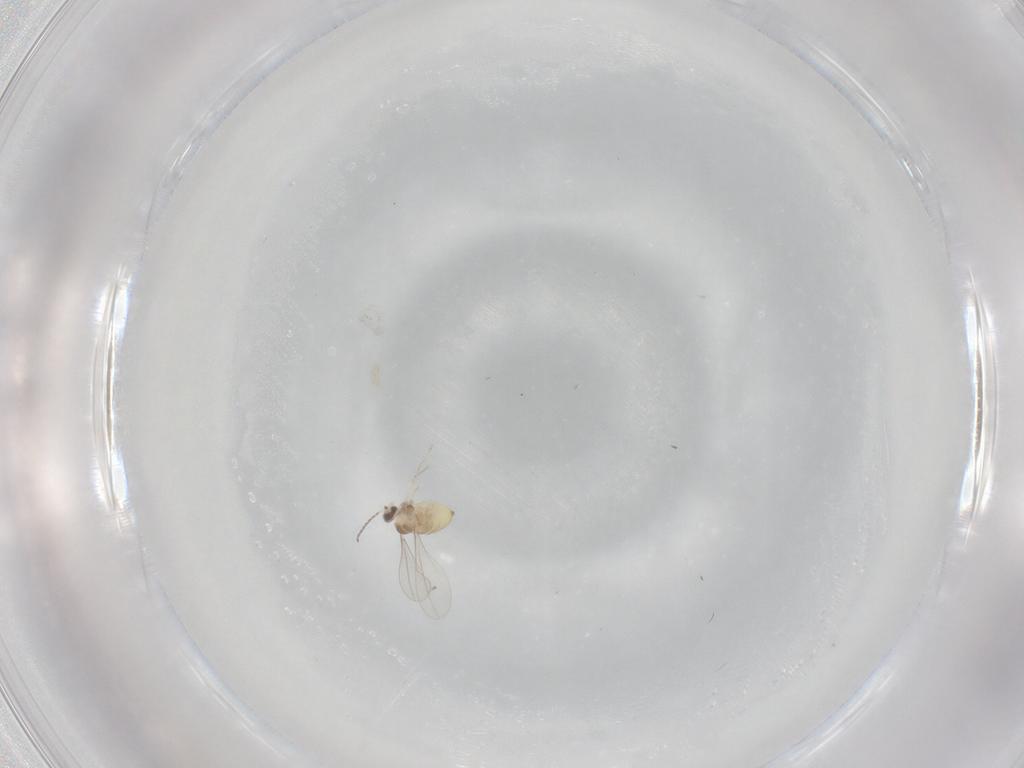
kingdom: Animalia
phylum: Arthropoda
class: Insecta
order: Diptera
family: Cecidomyiidae
